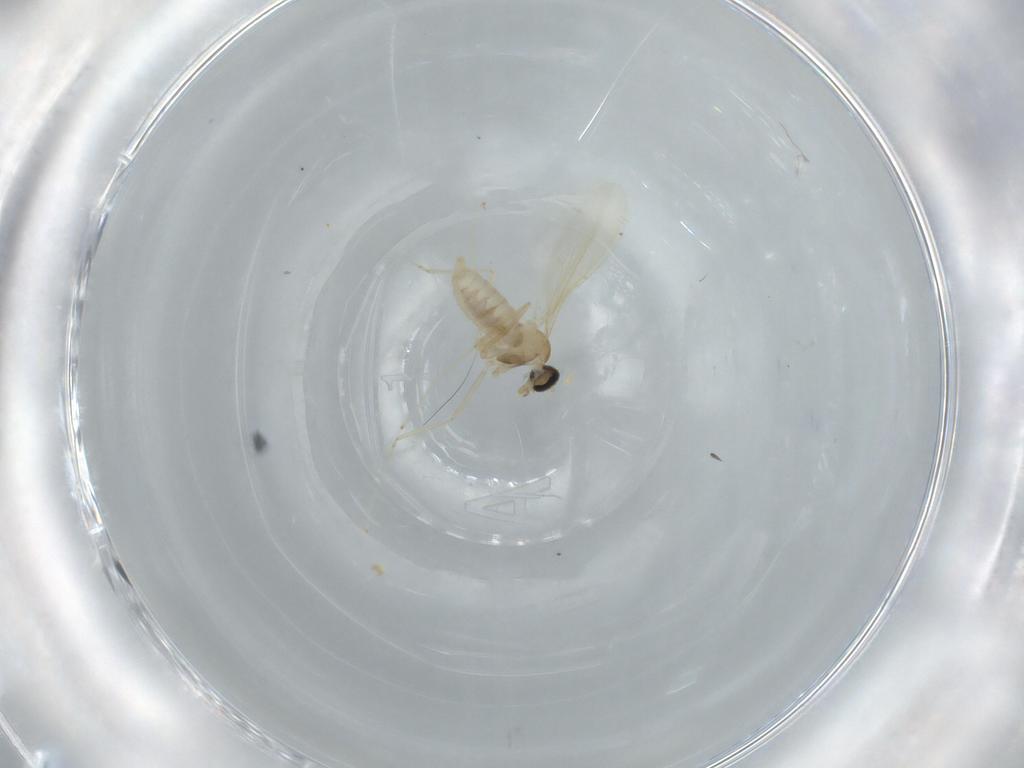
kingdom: Animalia
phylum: Arthropoda
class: Insecta
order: Diptera
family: Cecidomyiidae
